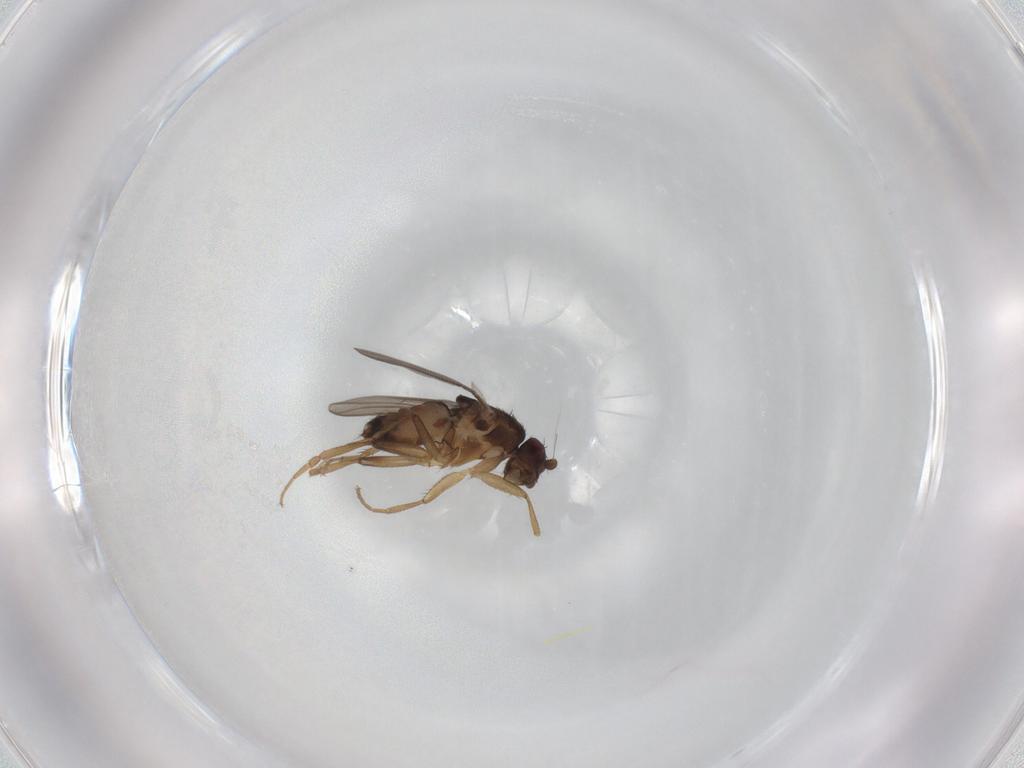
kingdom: Animalia
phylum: Arthropoda
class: Insecta
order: Diptera
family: Sphaeroceridae
